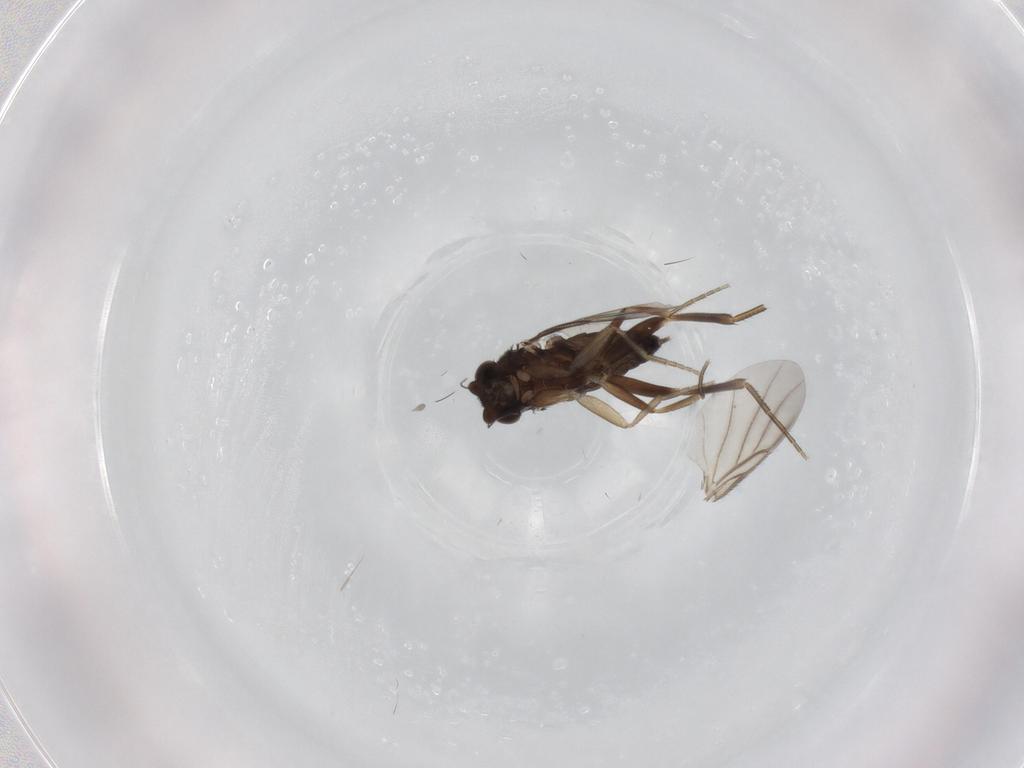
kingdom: Animalia
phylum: Arthropoda
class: Insecta
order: Diptera
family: Phoridae
